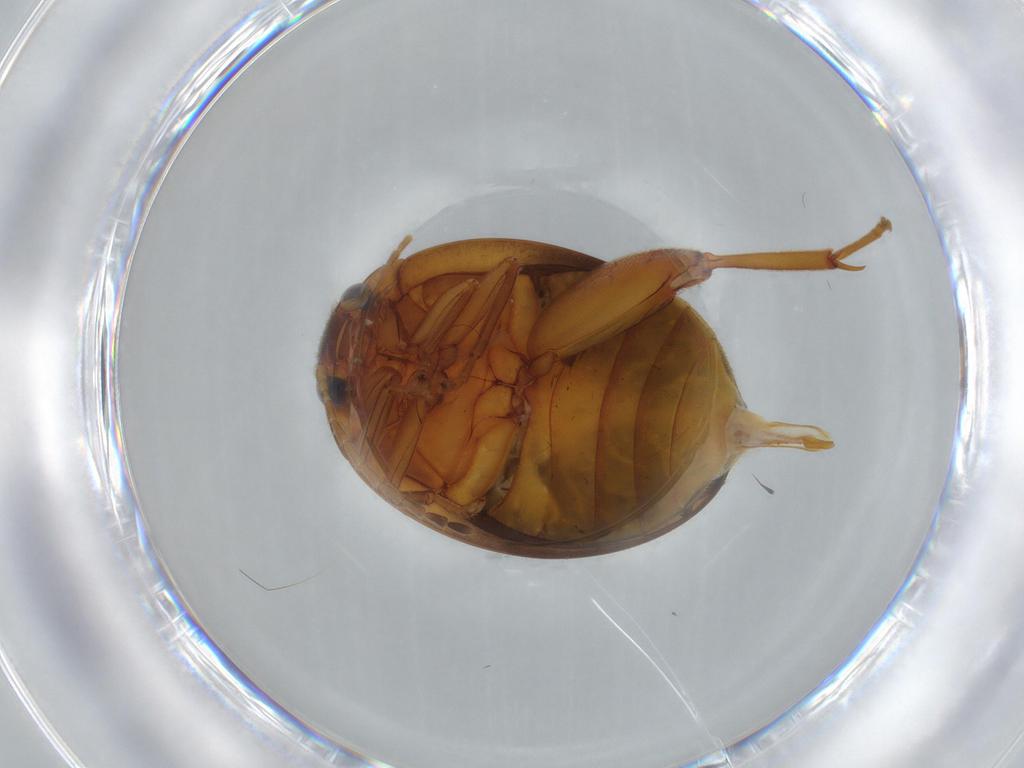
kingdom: Animalia
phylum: Arthropoda
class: Insecta
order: Coleoptera
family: Scirtidae
